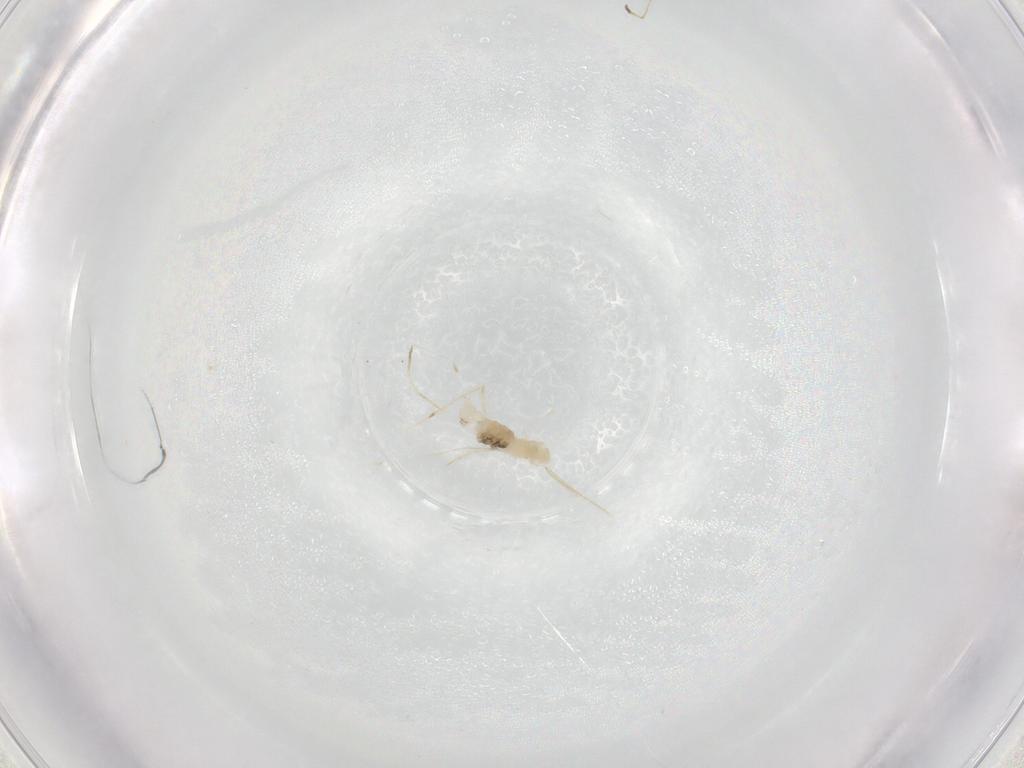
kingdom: Animalia
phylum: Arthropoda
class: Insecta
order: Diptera
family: Cecidomyiidae
